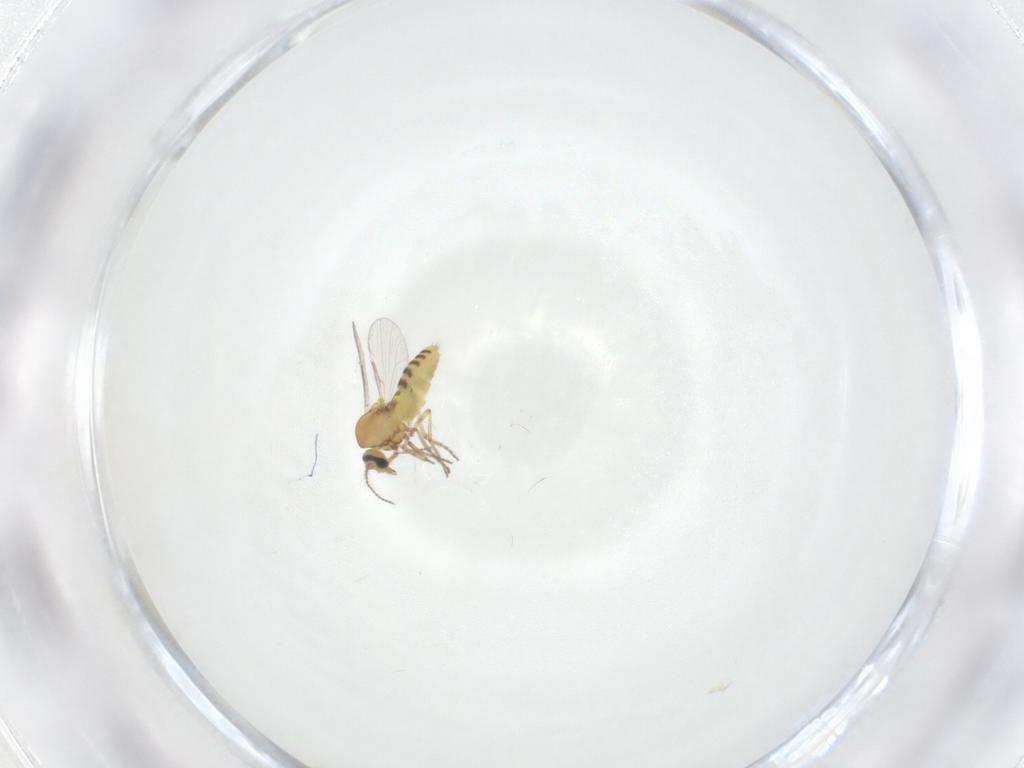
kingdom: Animalia
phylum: Arthropoda
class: Insecta
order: Diptera
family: Ceratopogonidae
